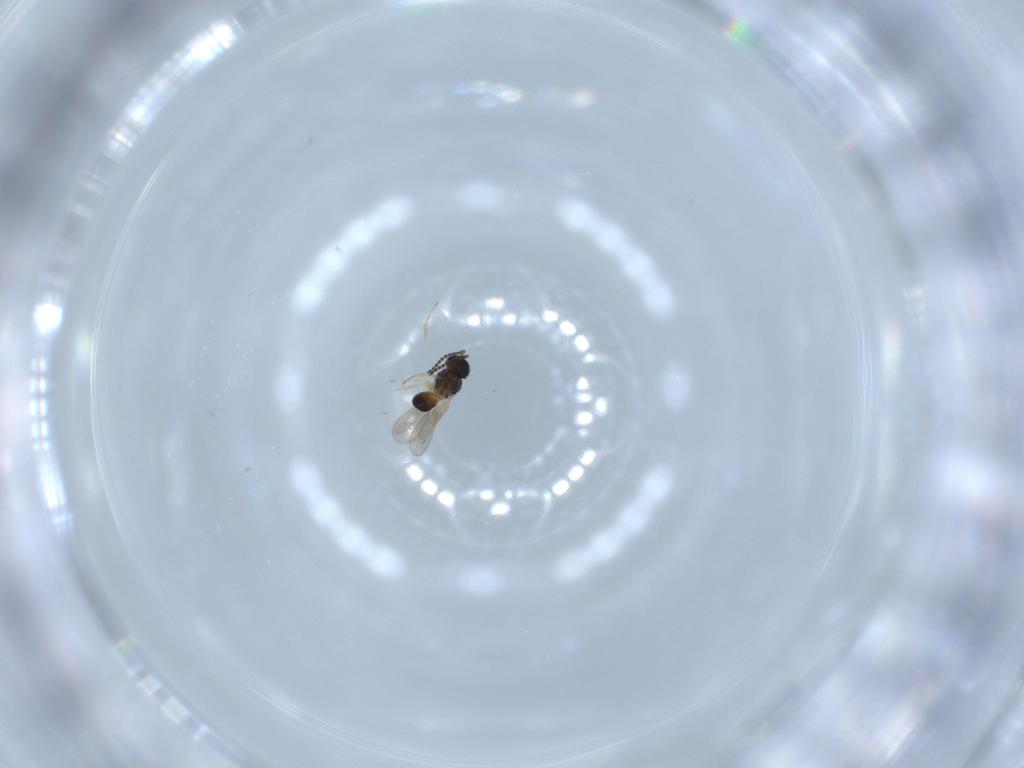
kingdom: Animalia
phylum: Arthropoda
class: Insecta
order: Hymenoptera
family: Scelionidae
